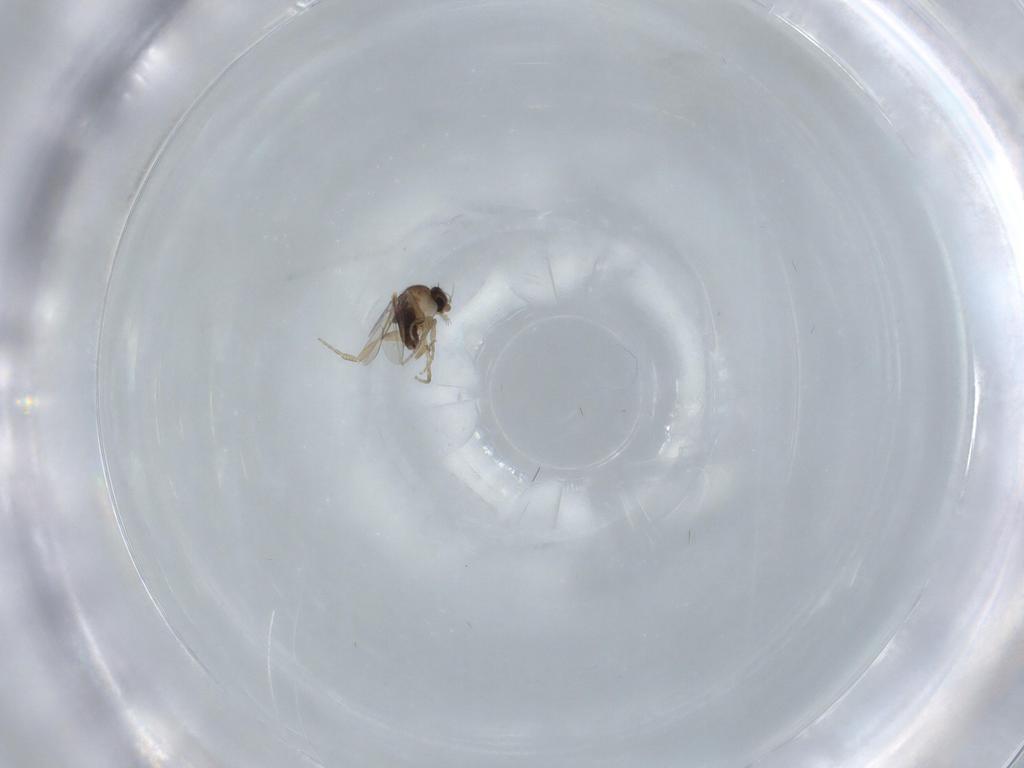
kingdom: Animalia
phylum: Arthropoda
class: Insecta
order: Diptera
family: Phoridae
